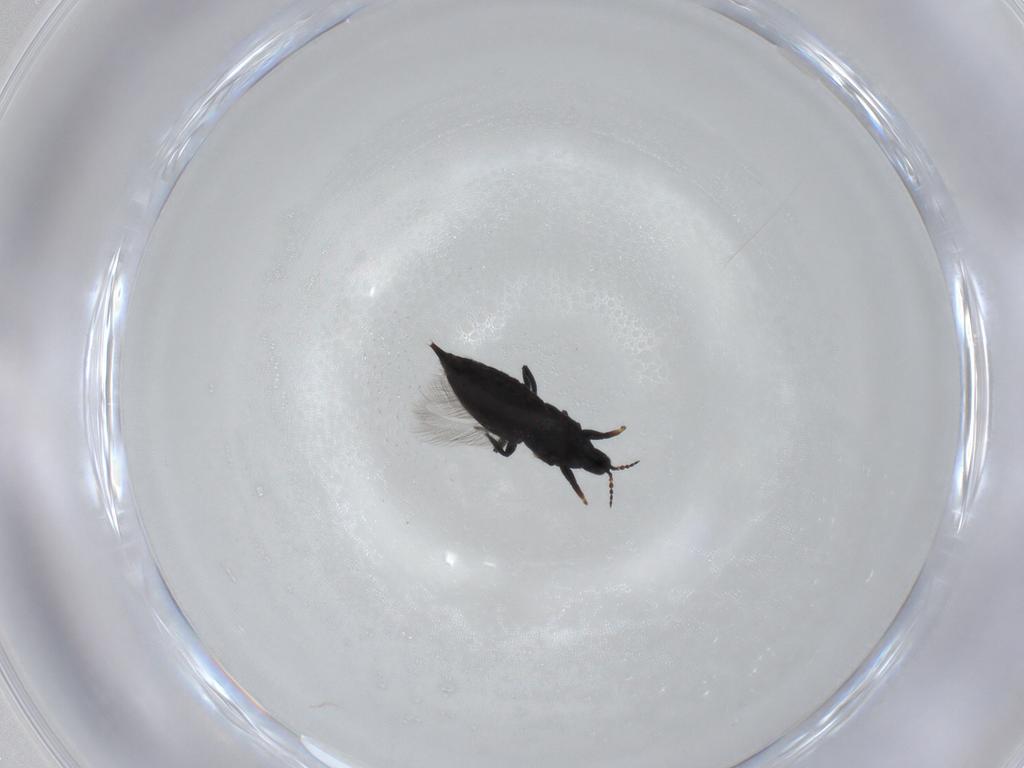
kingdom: Animalia
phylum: Arthropoda
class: Insecta
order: Thysanoptera
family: Phlaeothripidae
